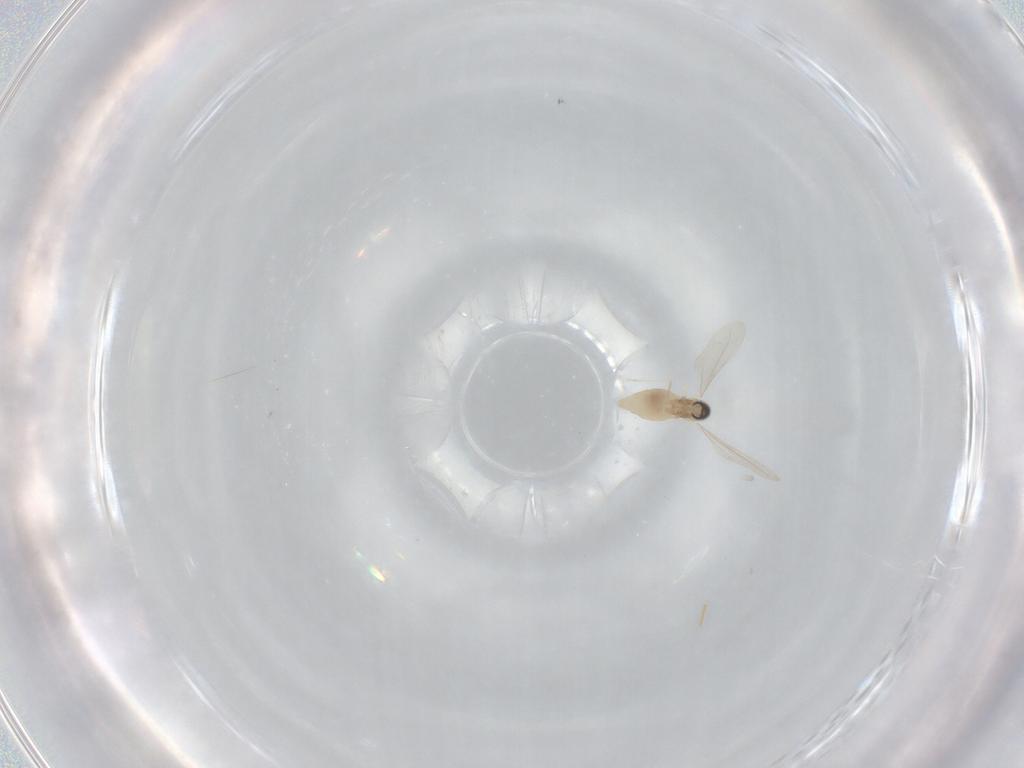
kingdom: Animalia
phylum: Arthropoda
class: Insecta
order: Diptera
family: Cecidomyiidae
